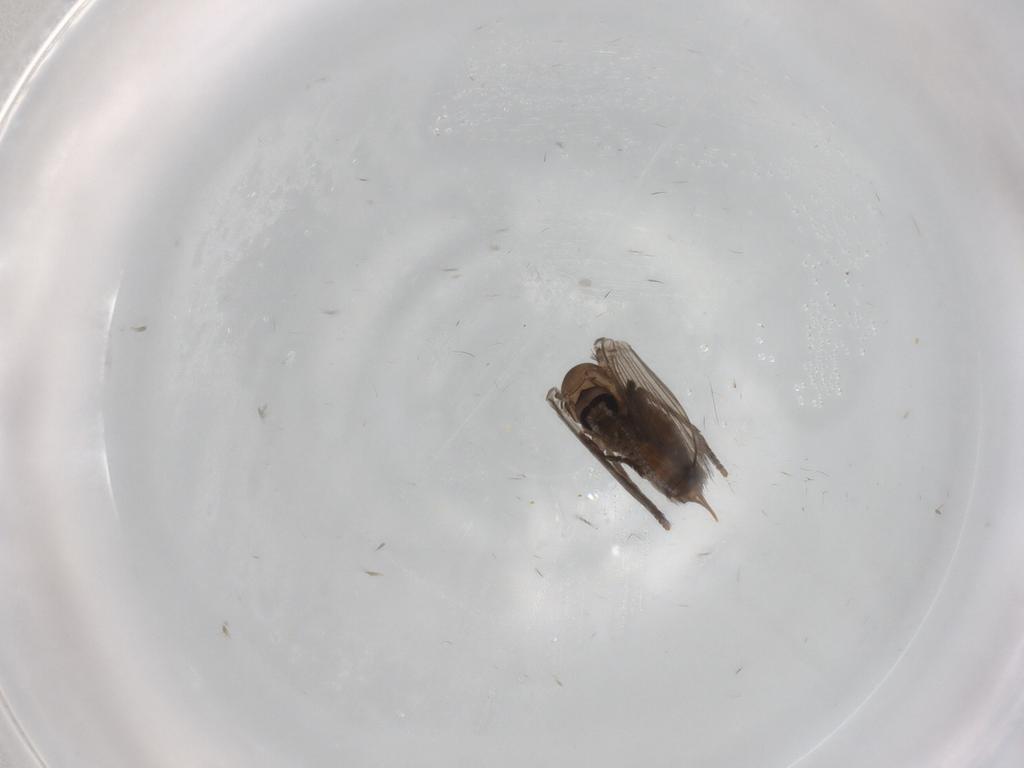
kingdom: Animalia
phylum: Arthropoda
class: Insecta
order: Diptera
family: Psychodidae
